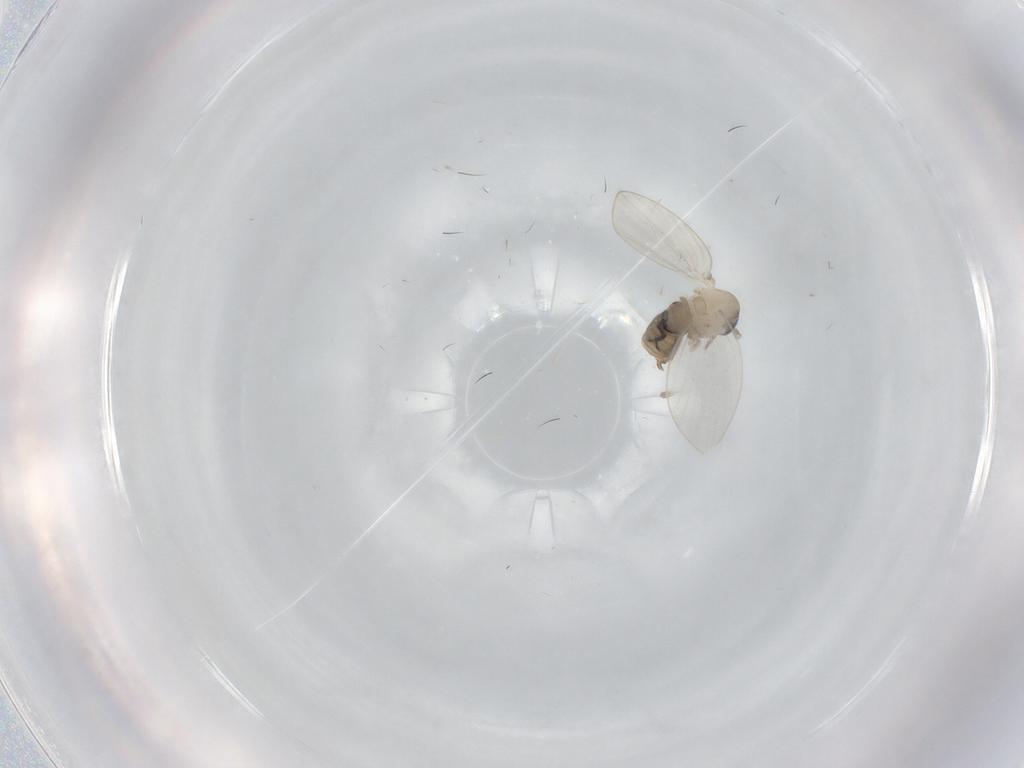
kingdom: Animalia
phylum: Arthropoda
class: Insecta
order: Diptera
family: Psychodidae
